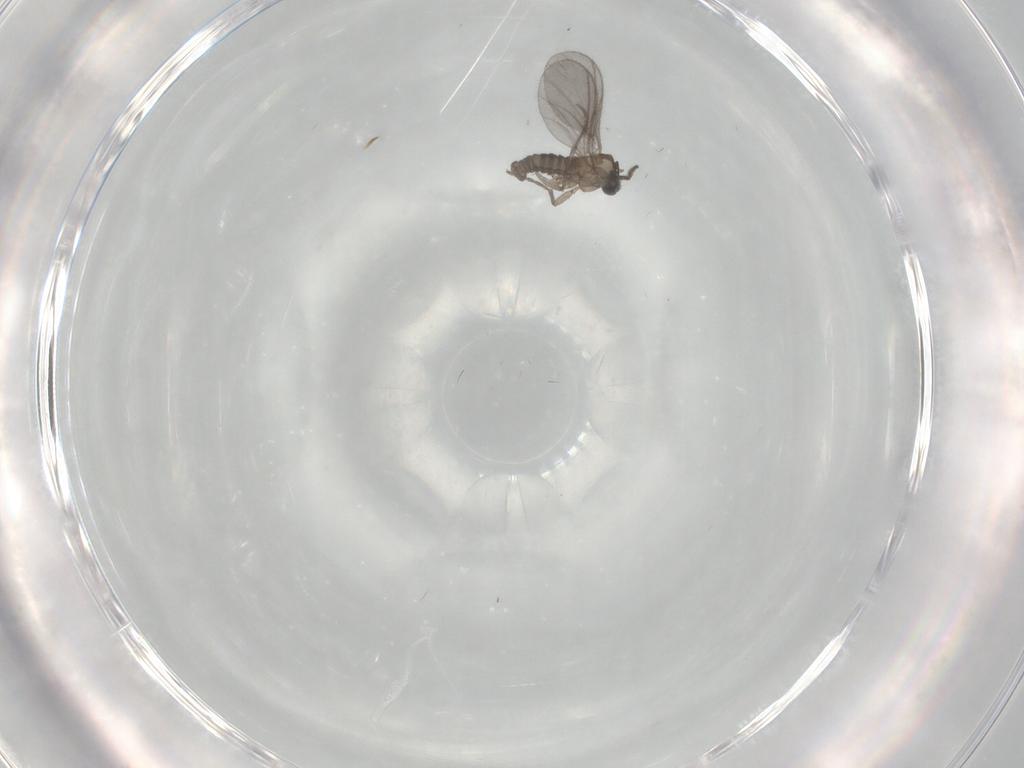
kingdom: Animalia
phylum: Arthropoda
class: Insecta
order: Diptera
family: Sciaridae
